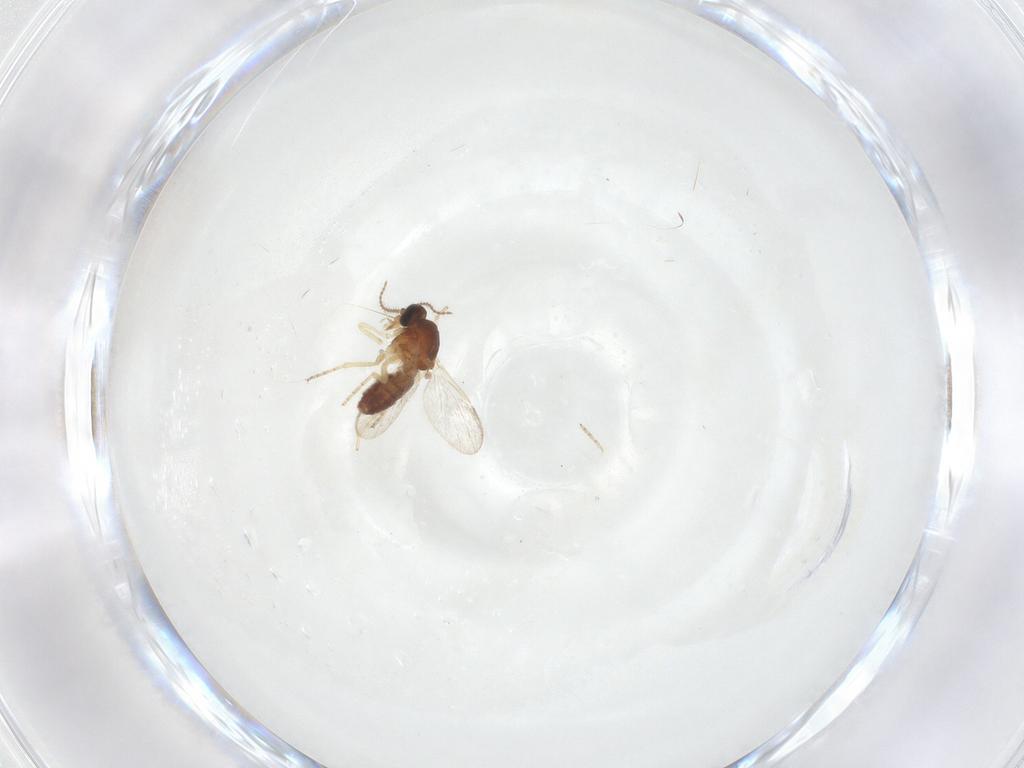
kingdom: Animalia
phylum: Arthropoda
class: Insecta
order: Diptera
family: Ceratopogonidae
